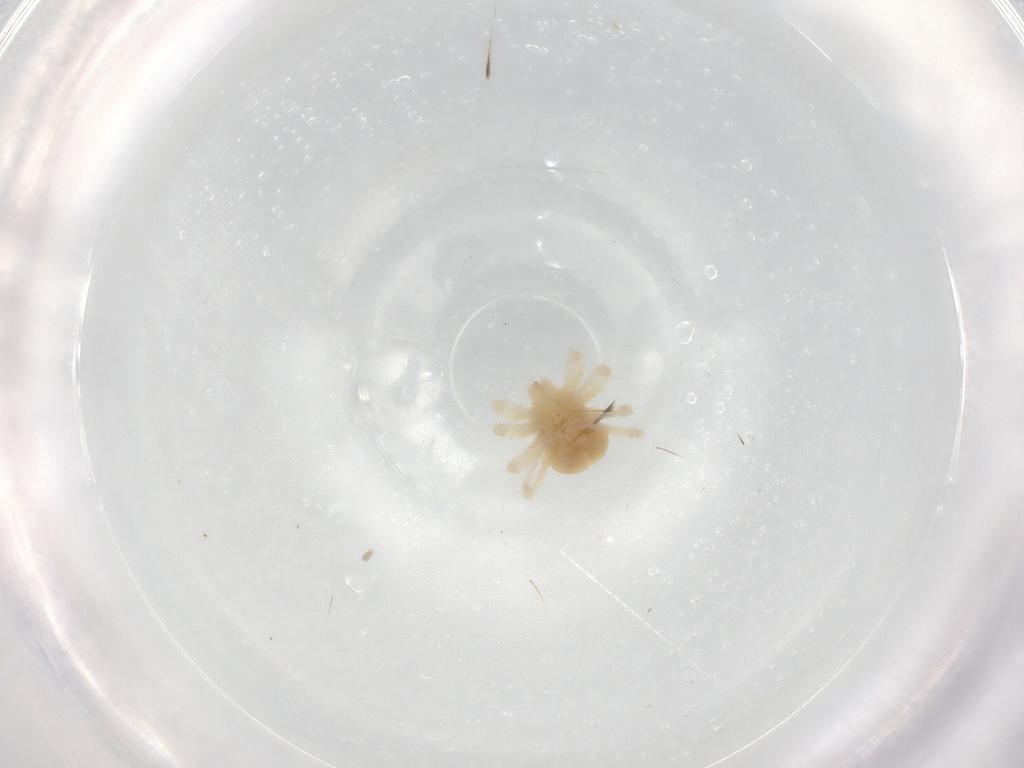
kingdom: Animalia
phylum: Arthropoda
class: Arachnida
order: Trombidiformes
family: Anystidae
